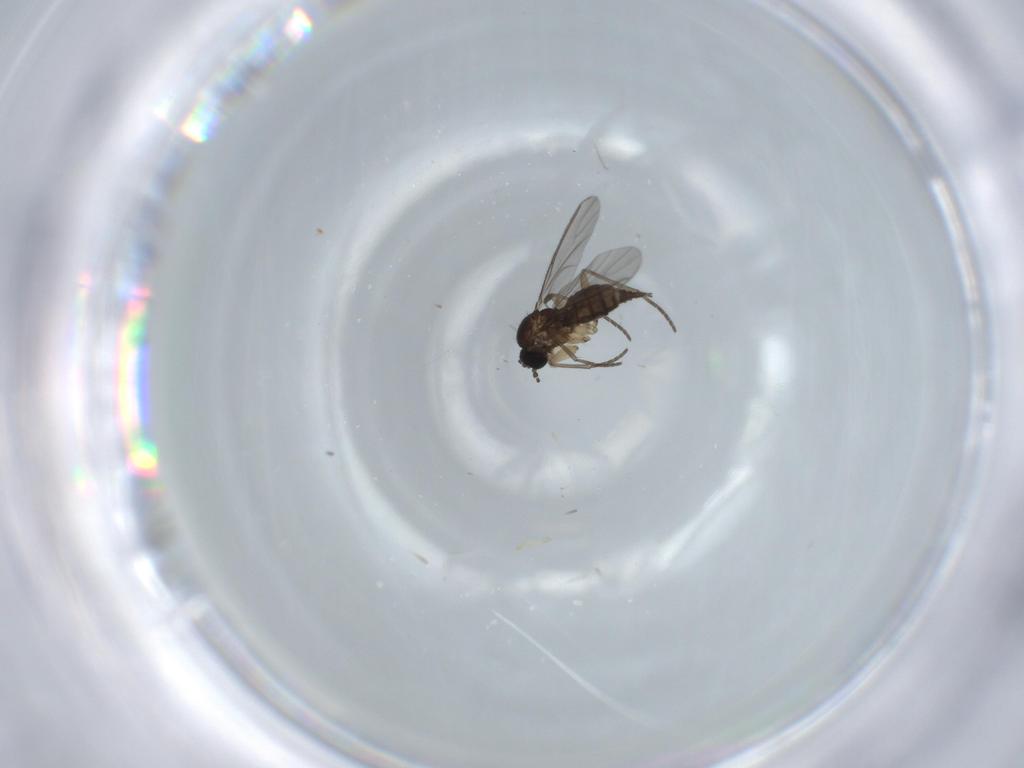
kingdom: Animalia
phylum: Arthropoda
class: Insecta
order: Diptera
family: Sciaridae
